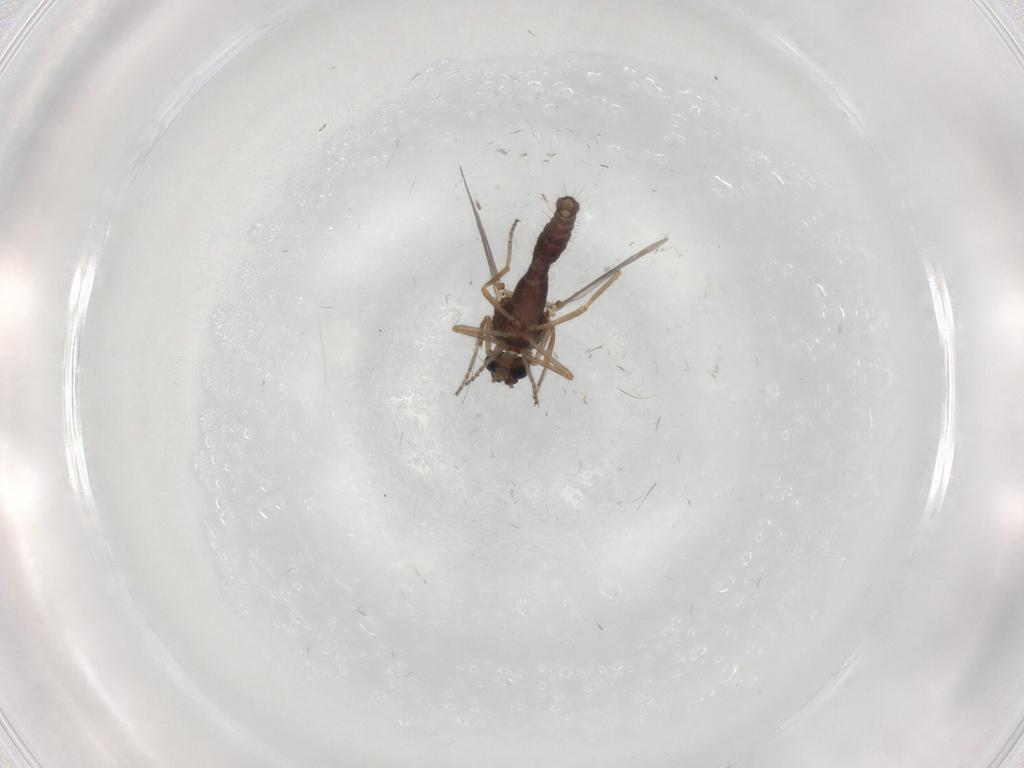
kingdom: Animalia
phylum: Arthropoda
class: Insecta
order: Diptera
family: Ceratopogonidae
